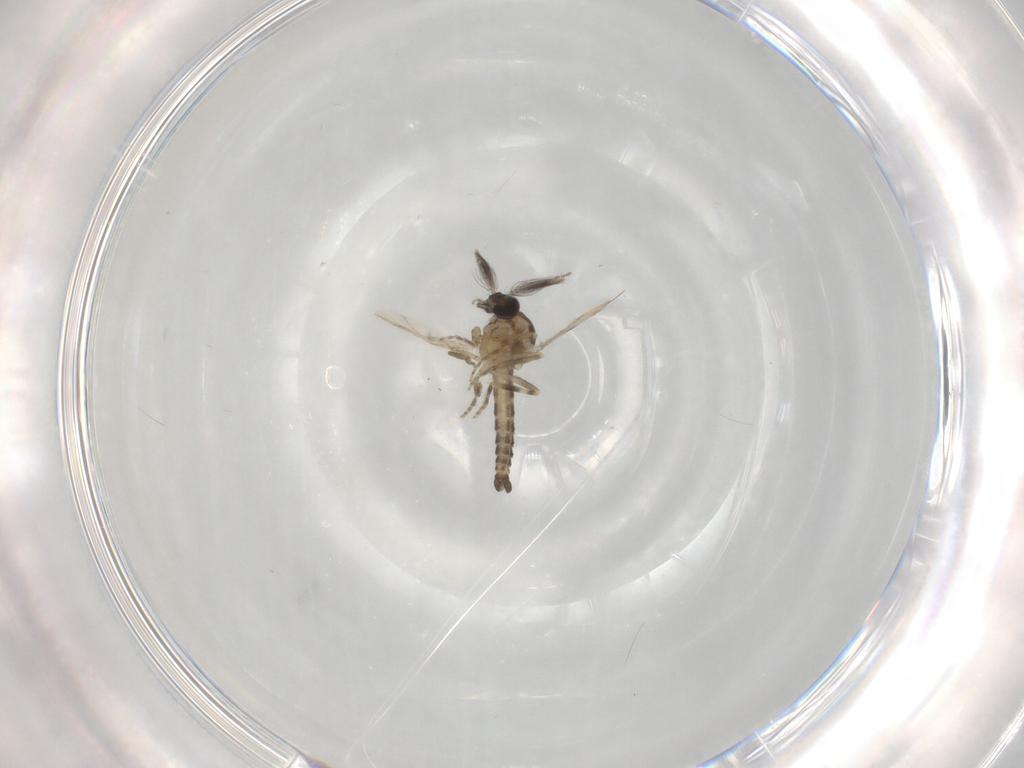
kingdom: Animalia
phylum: Arthropoda
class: Insecta
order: Diptera
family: Ceratopogonidae
